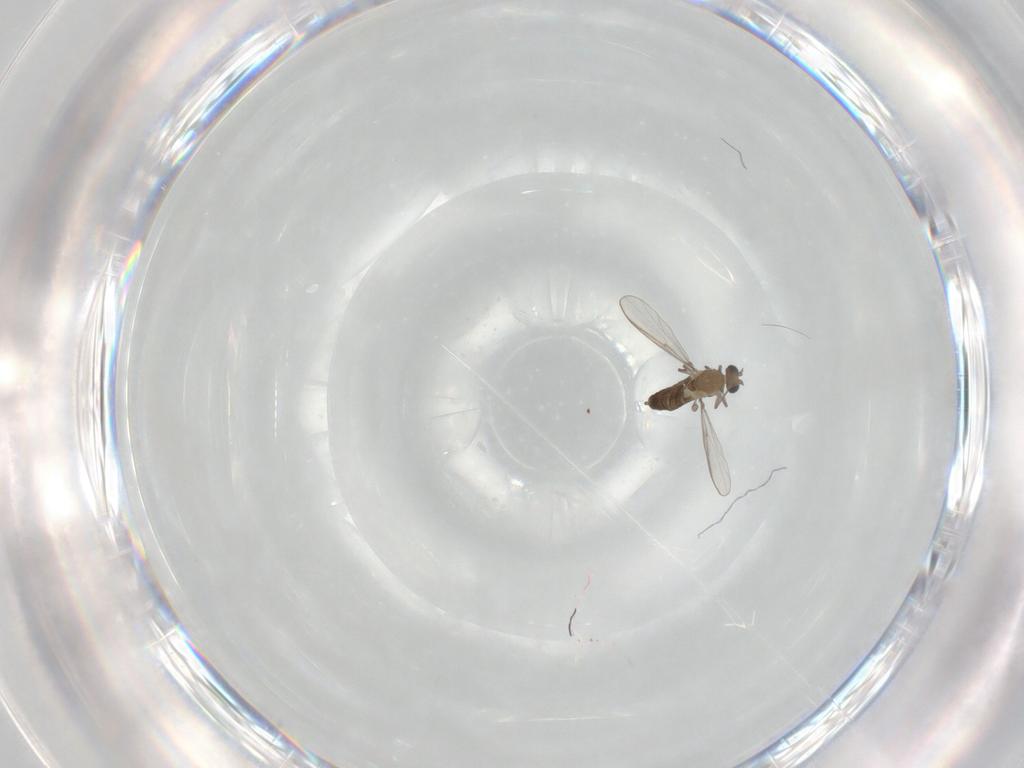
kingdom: Animalia
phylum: Arthropoda
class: Insecta
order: Diptera
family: Chironomidae
